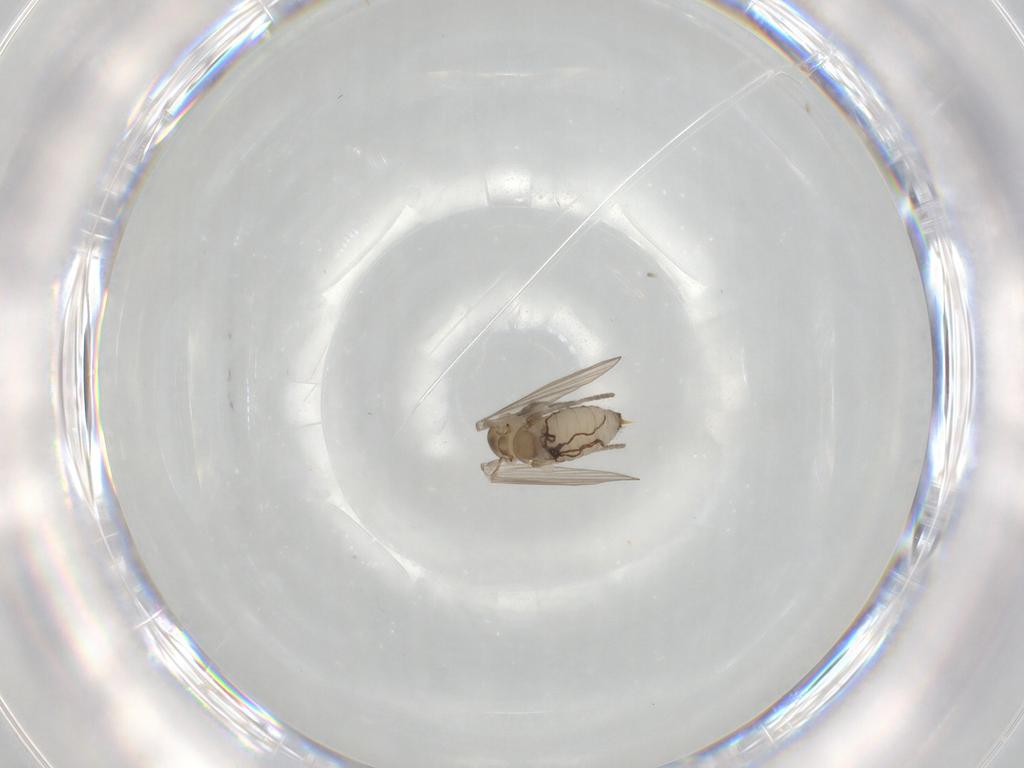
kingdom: Animalia
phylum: Arthropoda
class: Insecta
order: Diptera
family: Psychodidae
